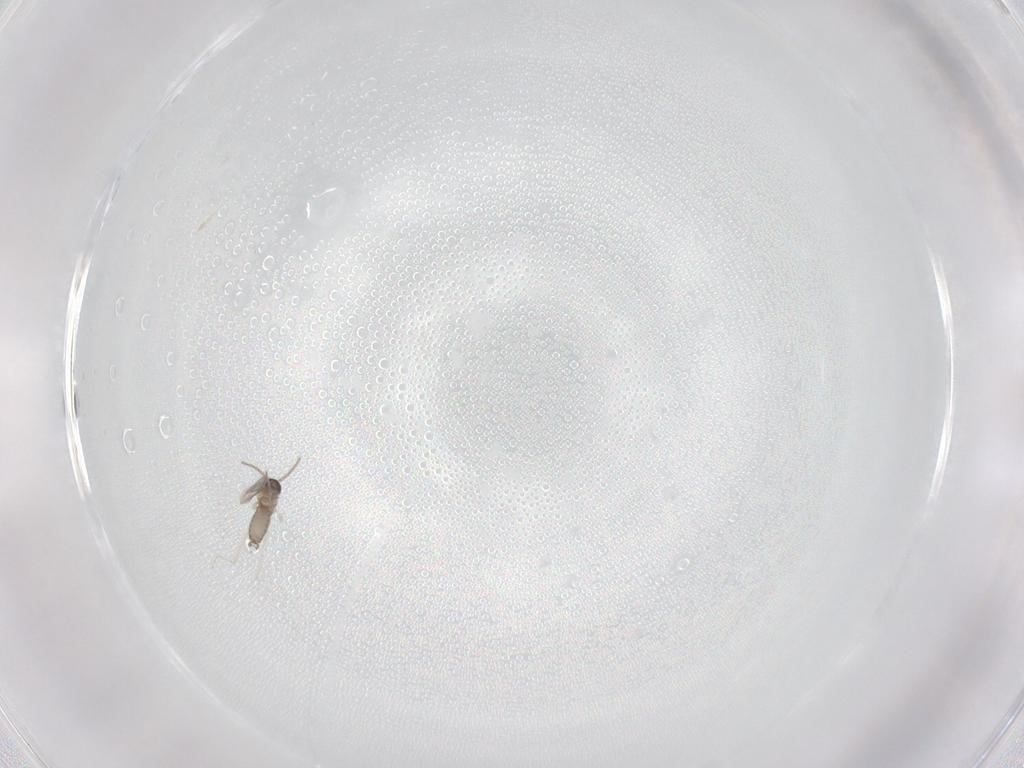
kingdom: Animalia
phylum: Arthropoda
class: Insecta
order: Diptera
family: Cecidomyiidae
